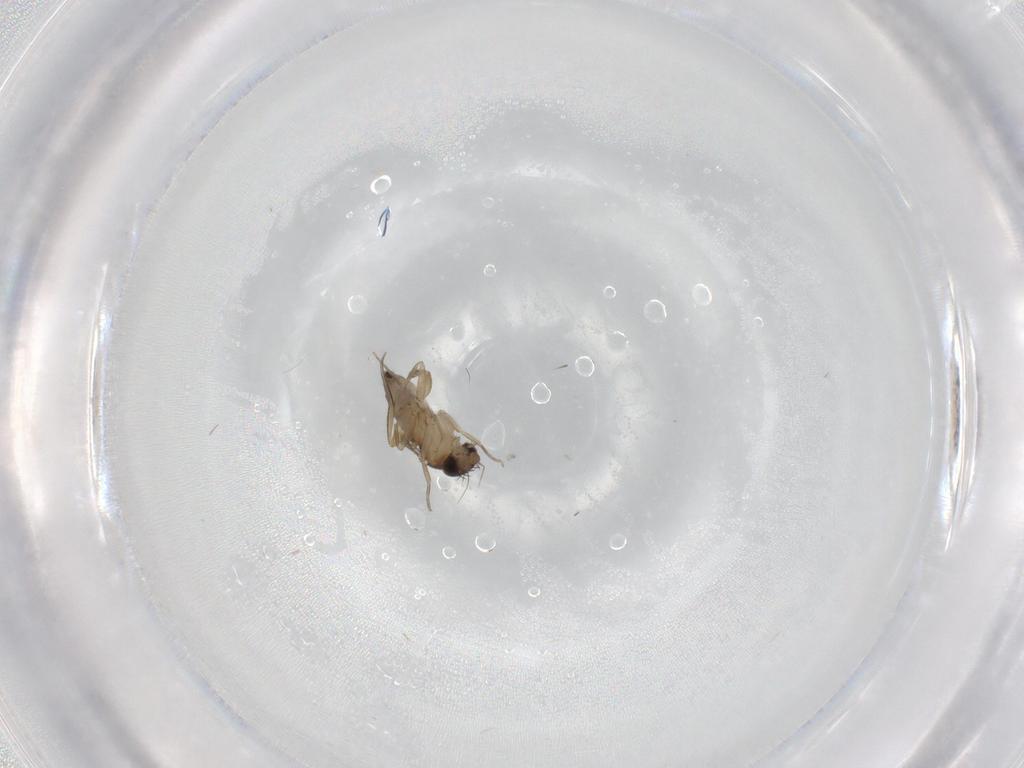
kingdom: Animalia
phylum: Arthropoda
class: Insecta
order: Diptera
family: Phoridae
